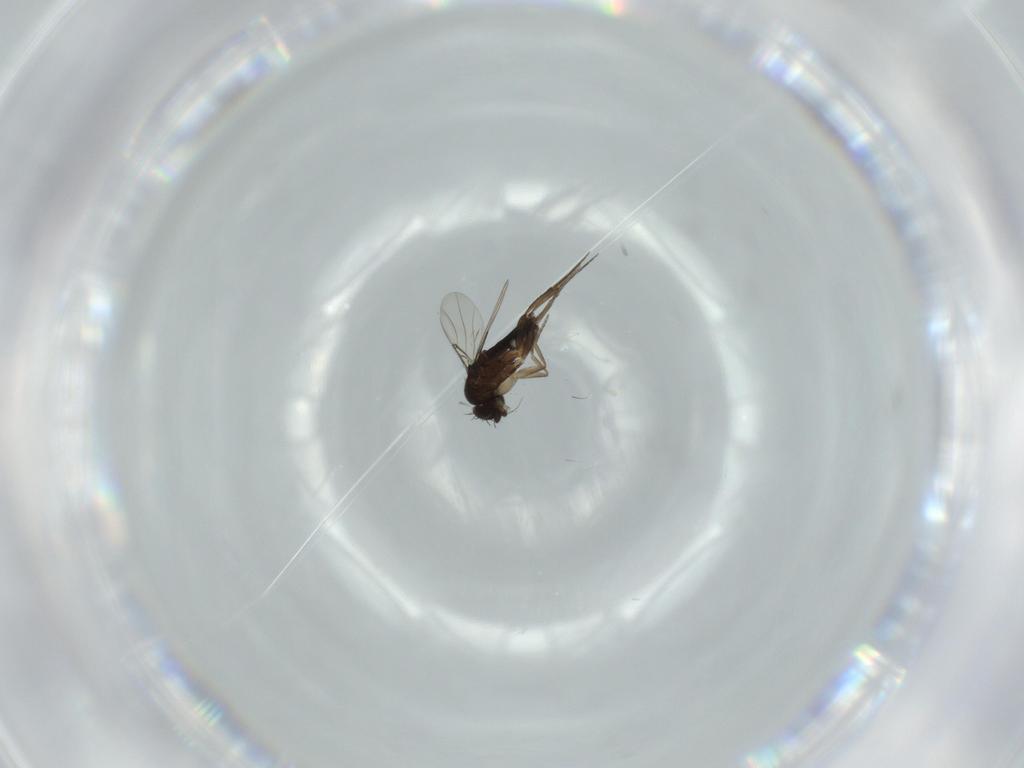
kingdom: Animalia
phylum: Arthropoda
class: Insecta
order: Diptera
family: Phoridae
